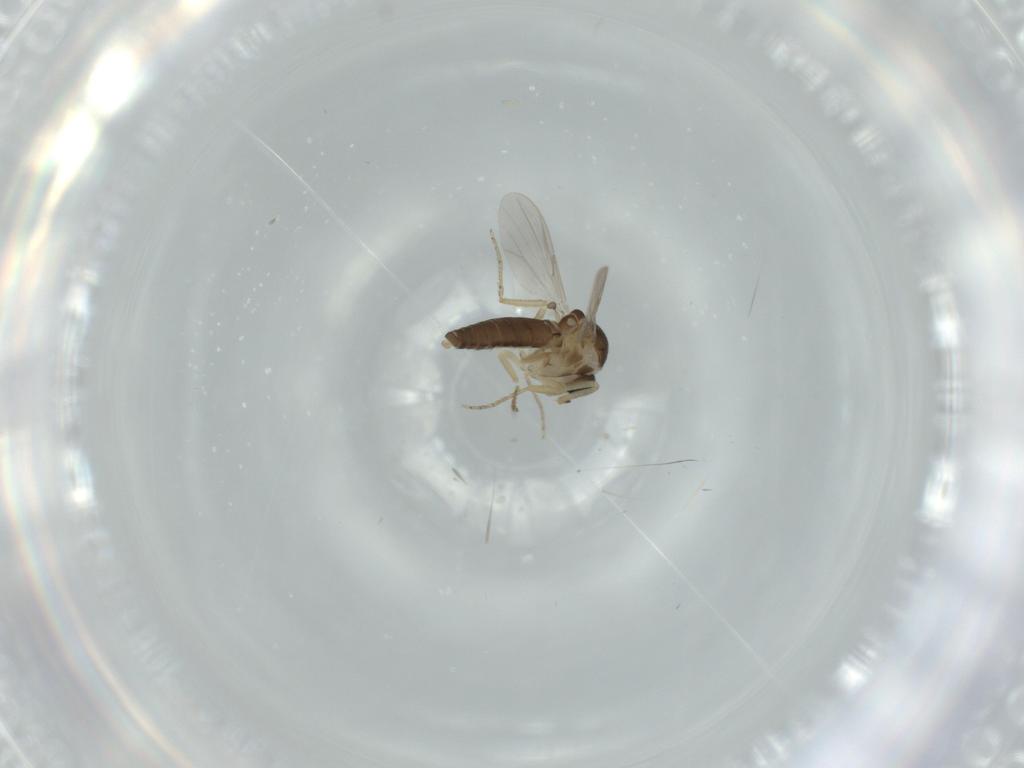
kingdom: Animalia
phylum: Arthropoda
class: Insecta
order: Diptera
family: Ceratopogonidae
